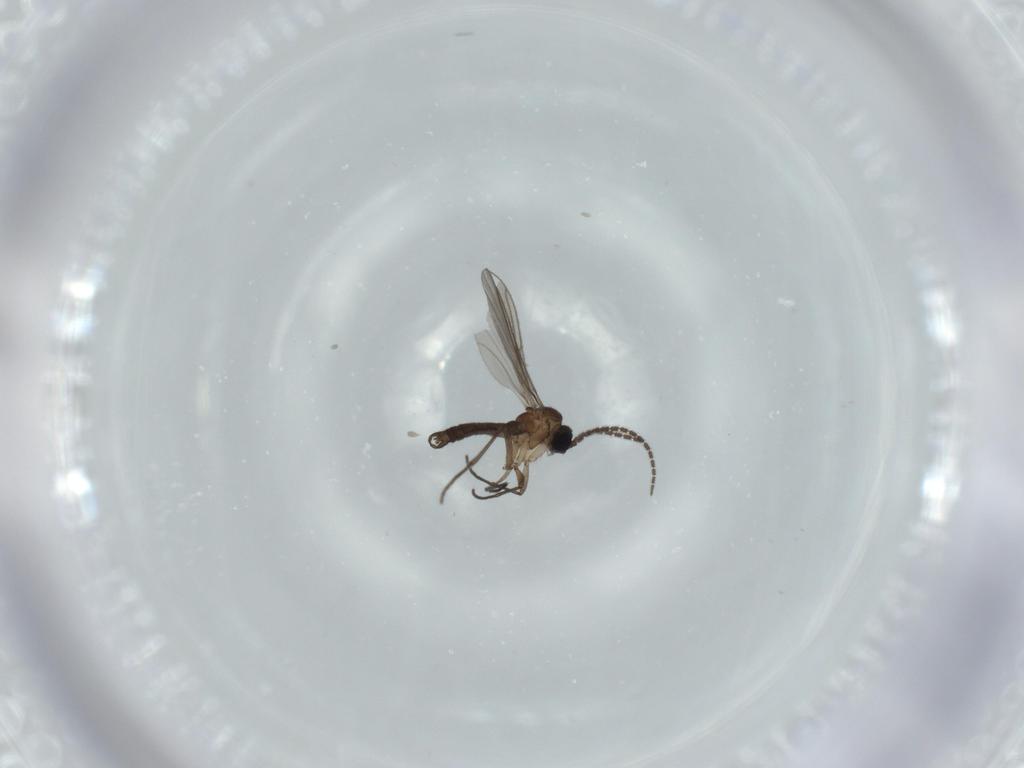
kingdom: Animalia
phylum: Arthropoda
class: Insecta
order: Diptera
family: Sciaridae
